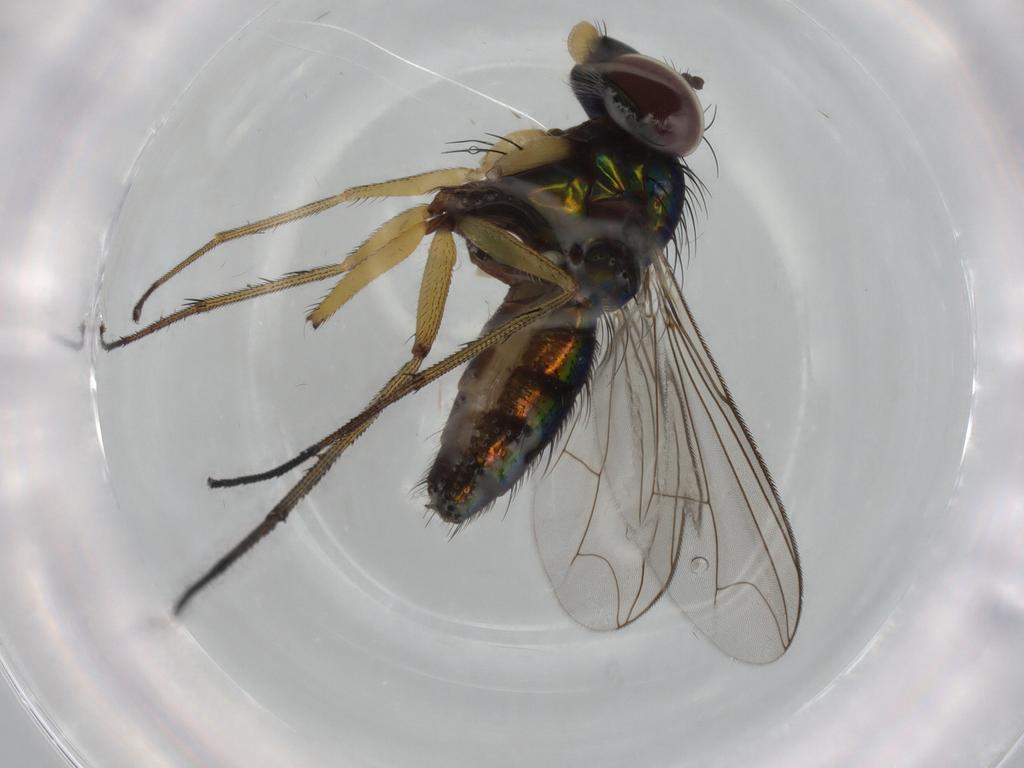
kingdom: Animalia
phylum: Arthropoda
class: Insecta
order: Diptera
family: Dolichopodidae
